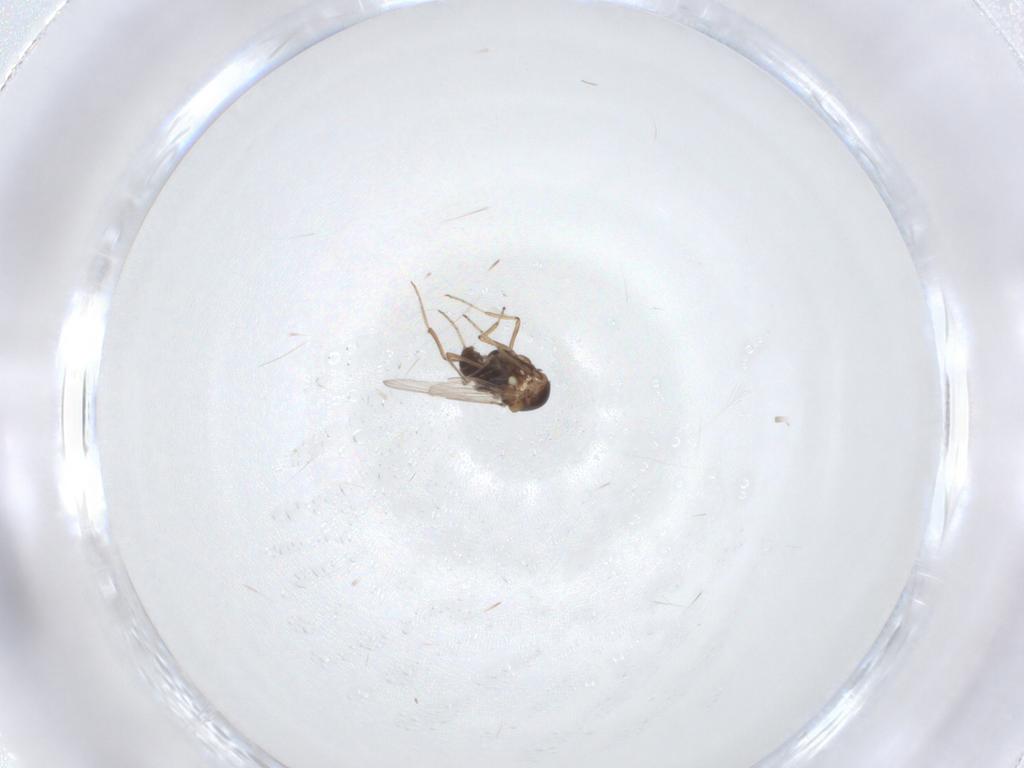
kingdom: Animalia
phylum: Arthropoda
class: Insecta
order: Diptera
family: Ceratopogonidae
